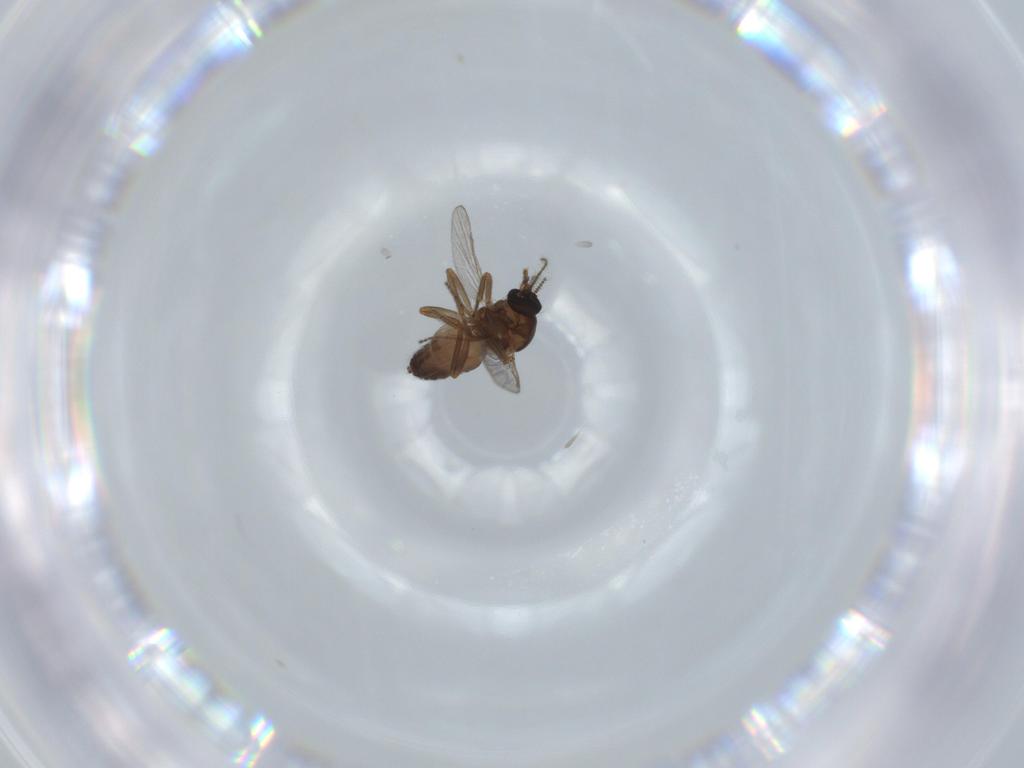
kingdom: Animalia
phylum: Arthropoda
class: Insecta
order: Diptera
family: Ceratopogonidae
